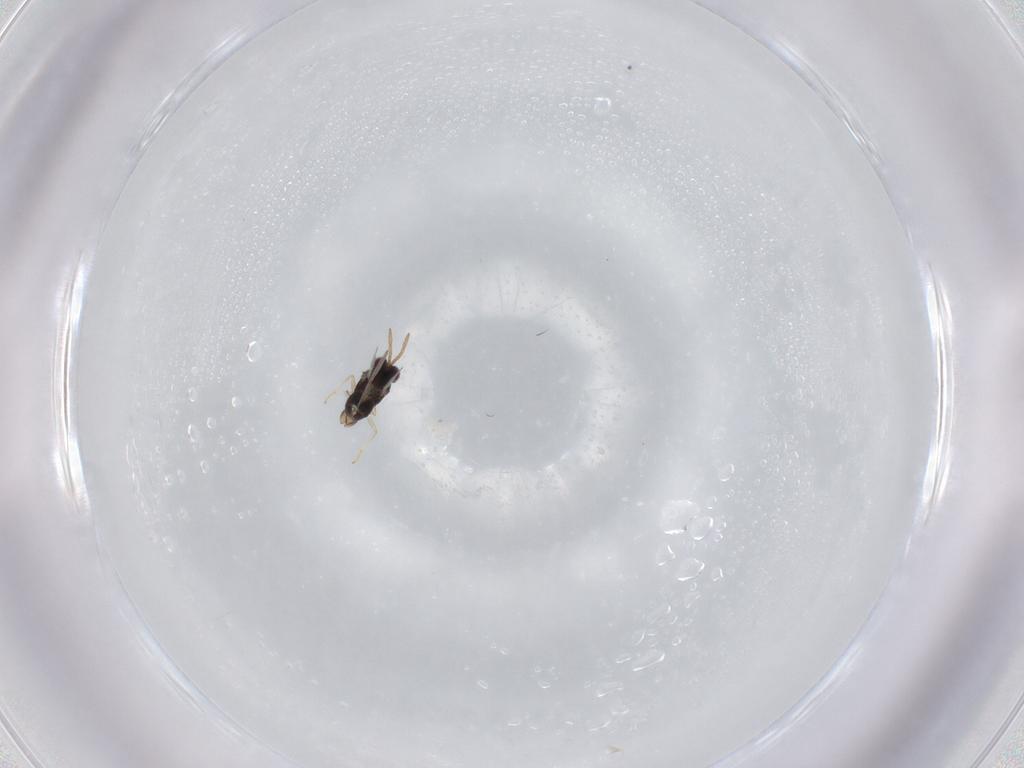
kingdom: Animalia
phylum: Arthropoda
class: Insecta
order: Hymenoptera
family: Aphelinidae
